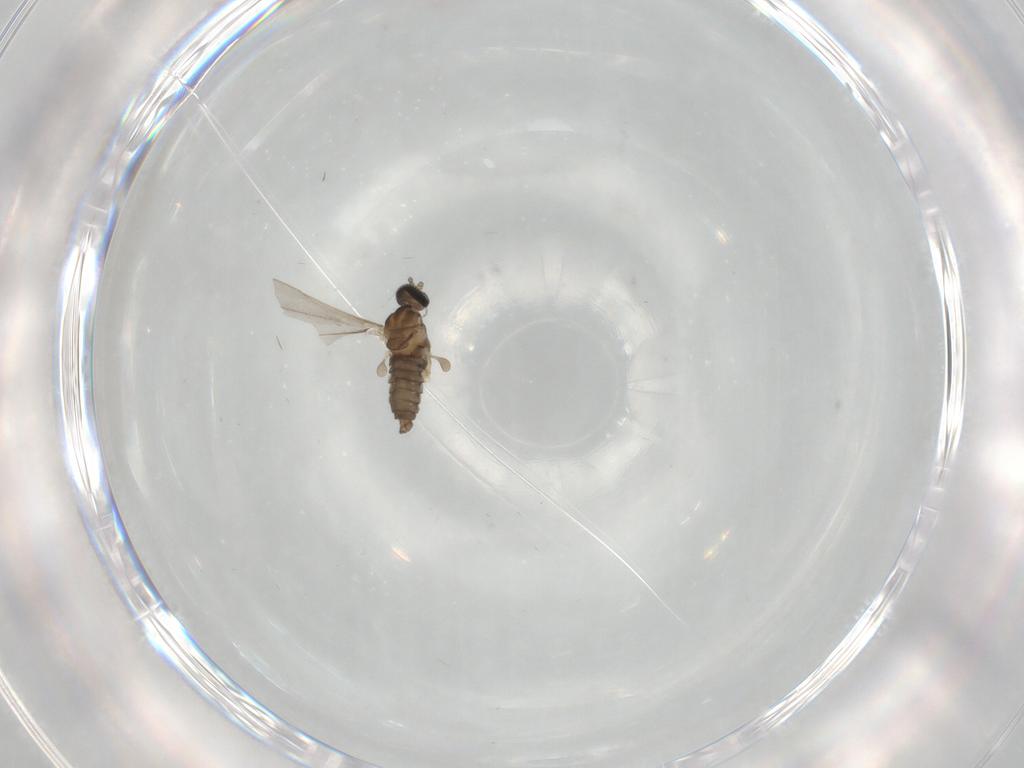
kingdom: Animalia
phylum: Arthropoda
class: Insecta
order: Diptera
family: Cecidomyiidae
